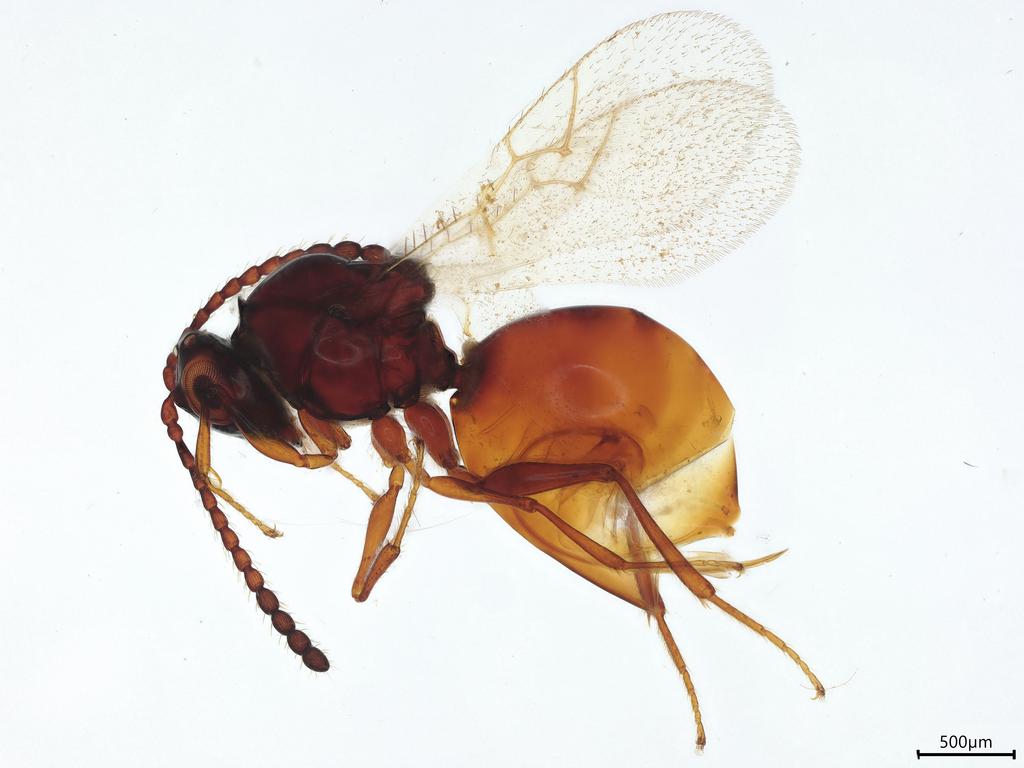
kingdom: Animalia
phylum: Arthropoda
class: Insecta
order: Hymenoptera
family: Figitidae
